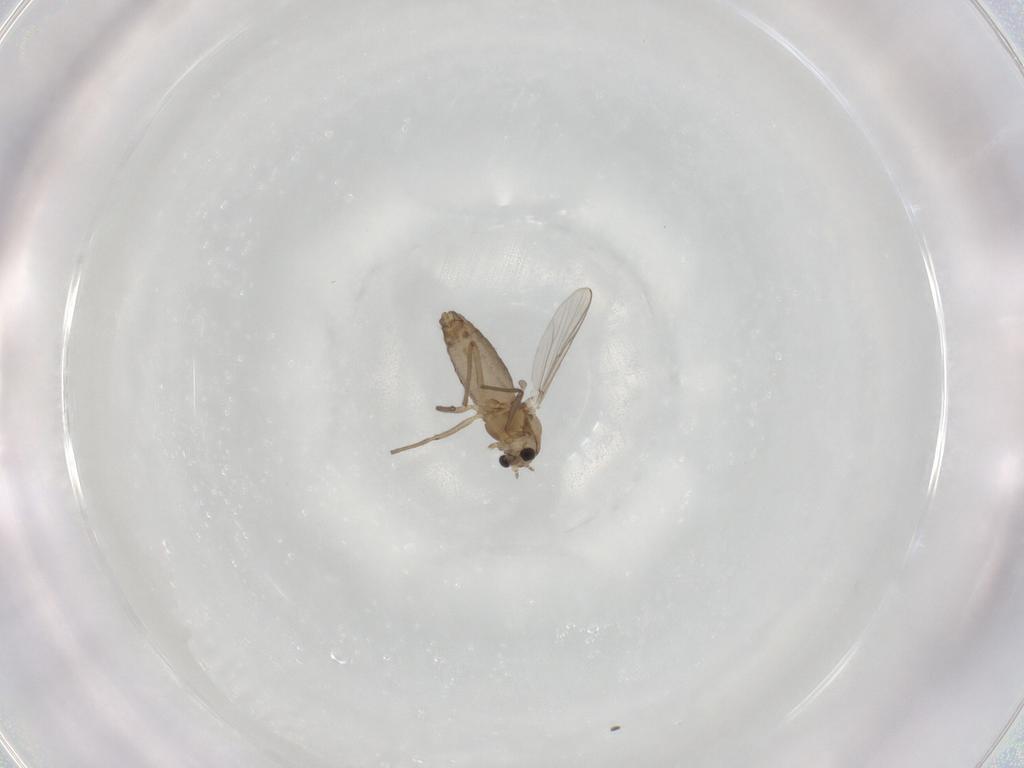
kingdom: Animalia
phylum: Arthropoda
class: Insecta
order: Diptera
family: Chironomidae
